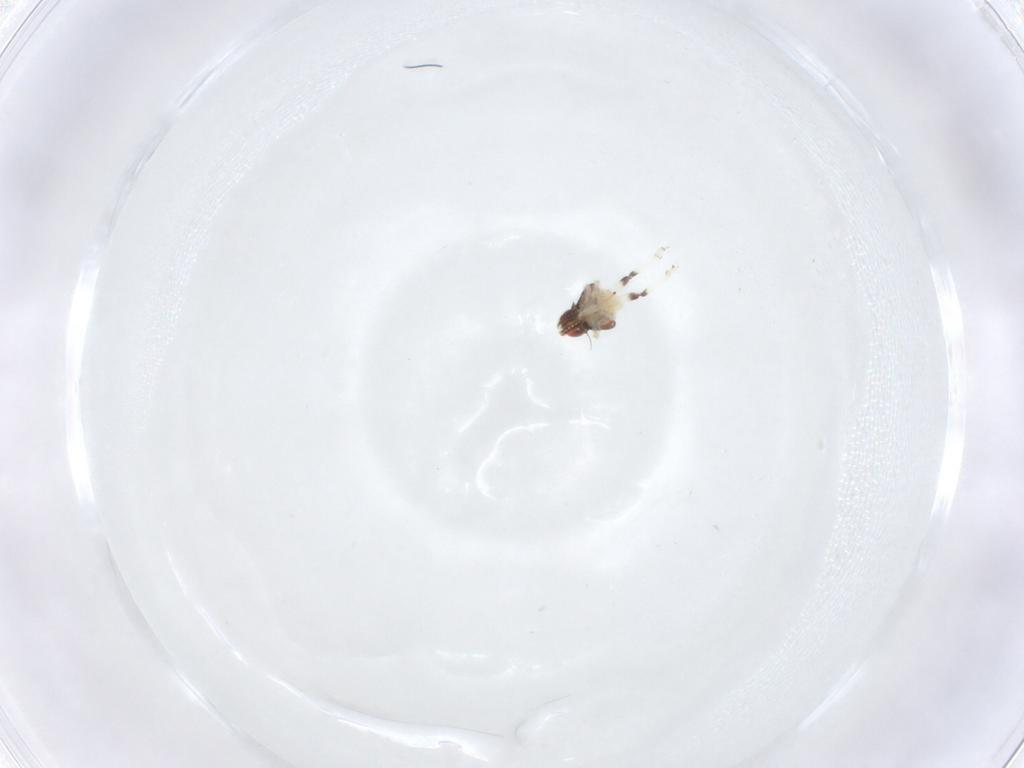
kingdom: Animalia
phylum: Arthropoda
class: Insecta
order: Hemiptera
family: Nogodinidae
